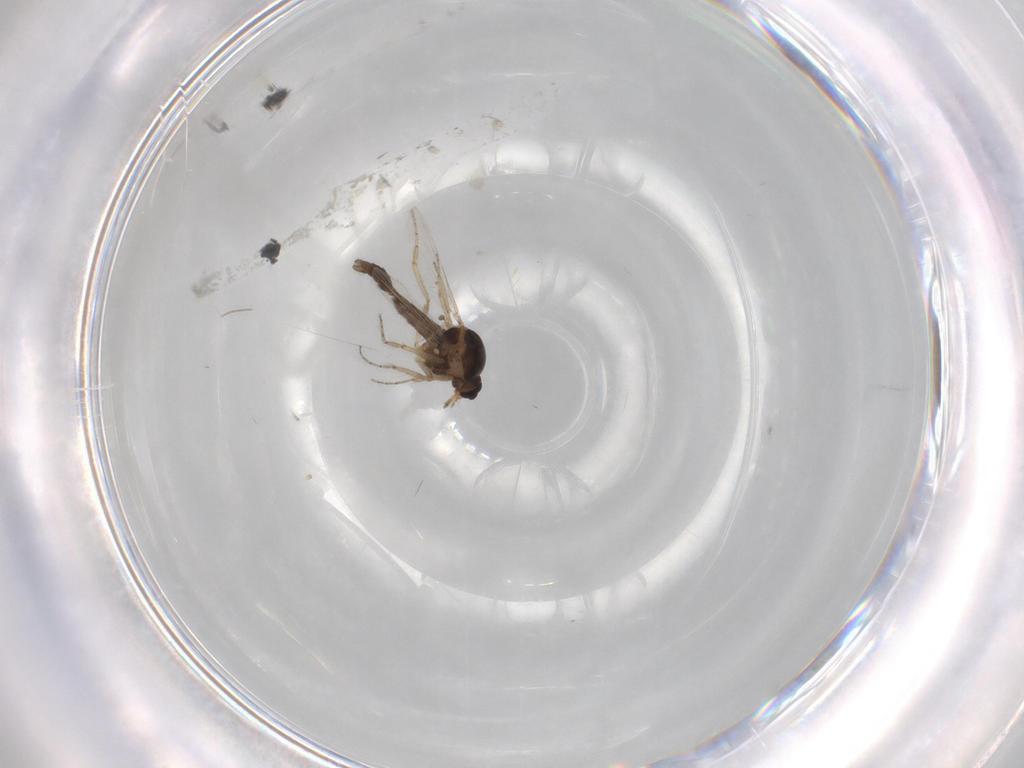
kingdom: Animalia
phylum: Arthropoda
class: Insecta
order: Diptera
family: Ceratopogonidae
